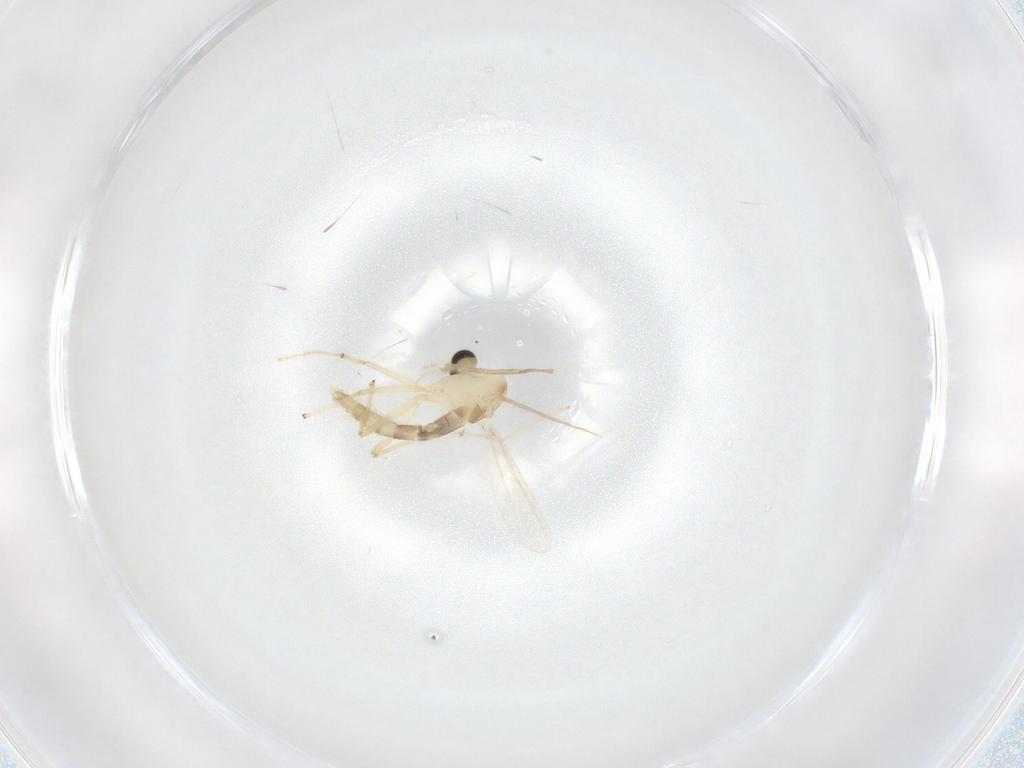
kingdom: Animalia
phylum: Arthropoda
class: Insecta
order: Diptera
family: Chironomidae
